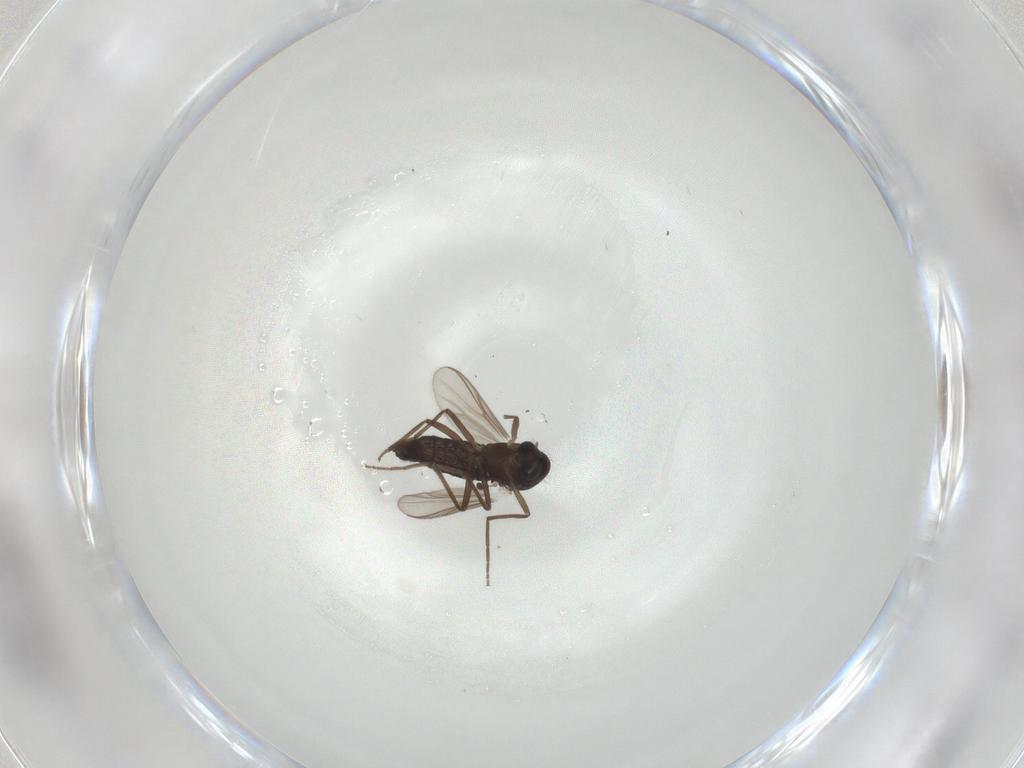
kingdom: Animalia
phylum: Arthropoda
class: Insecta
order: Diptera
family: Chironomidae
